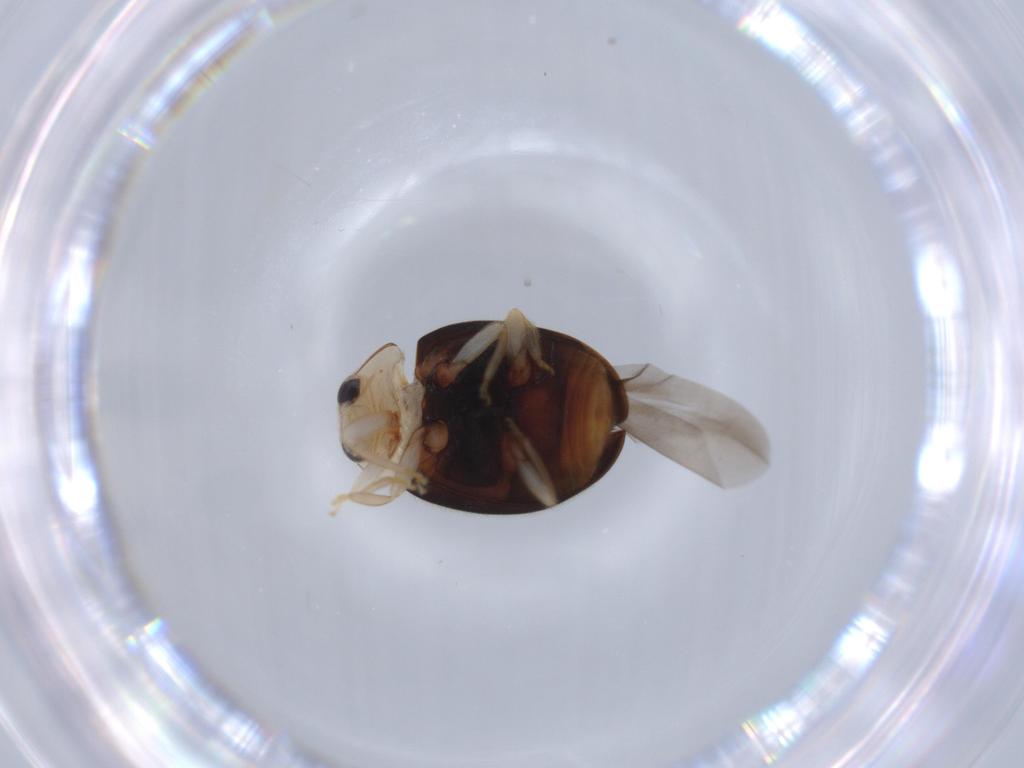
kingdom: Animalia
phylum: Arthropoda
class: Insecta
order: Coleoptera
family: Coccinellidae
